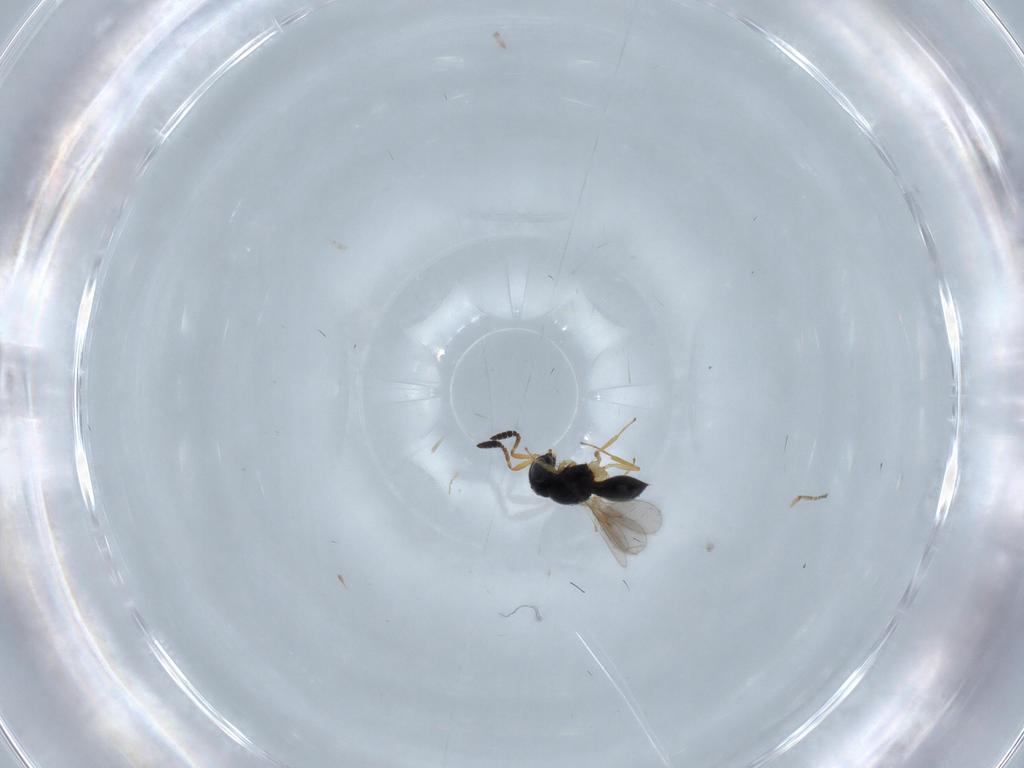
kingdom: Animalia
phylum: Arthropoda
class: Insecta
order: Hymenoptera
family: Scelionidae
